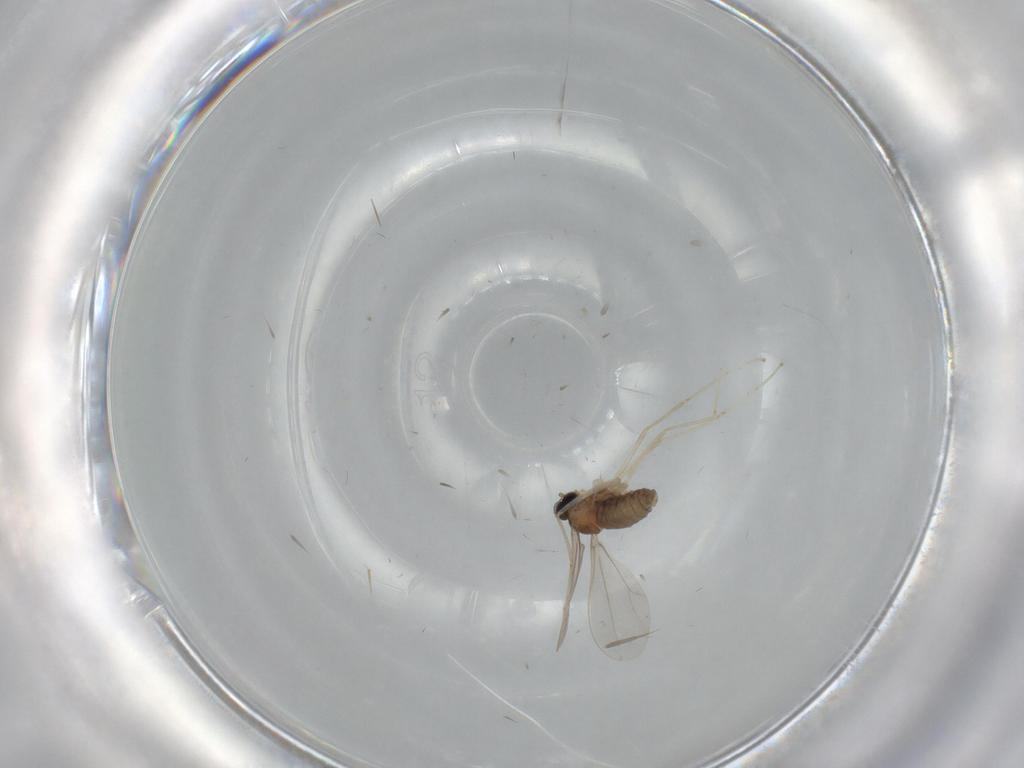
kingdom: Animalia
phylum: Arthropoda
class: Insecta
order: Diptera
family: Cecidomyiidae
